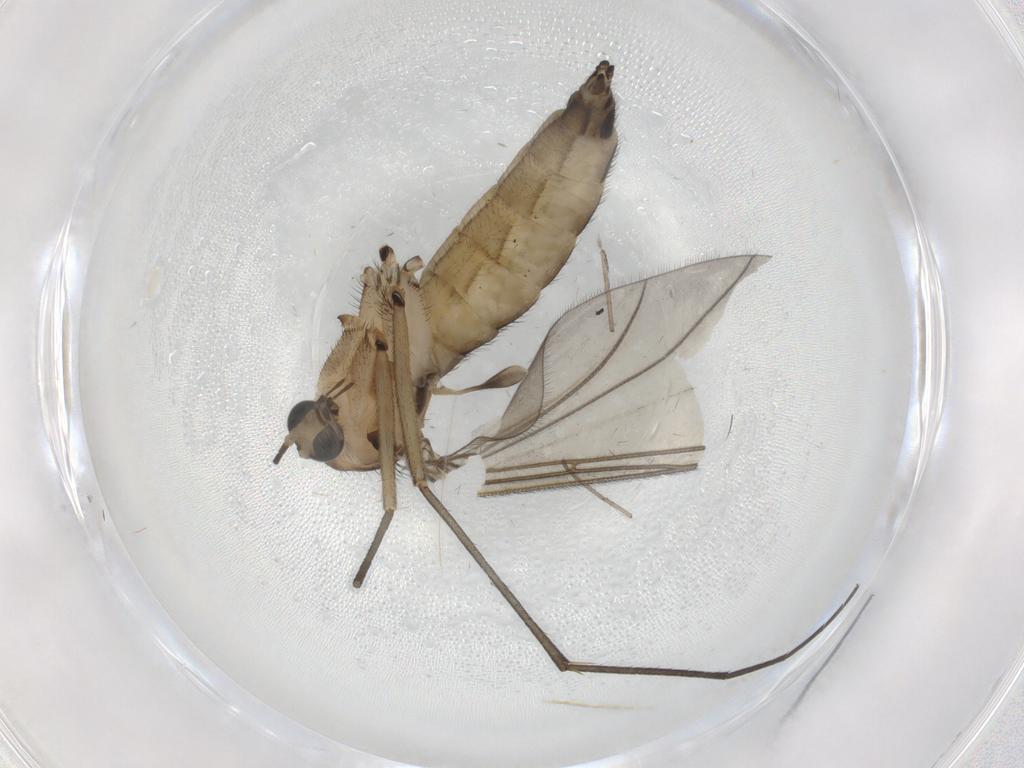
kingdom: Animalia
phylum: Arthropoda
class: Insecta
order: Diptera
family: Sciaridae
